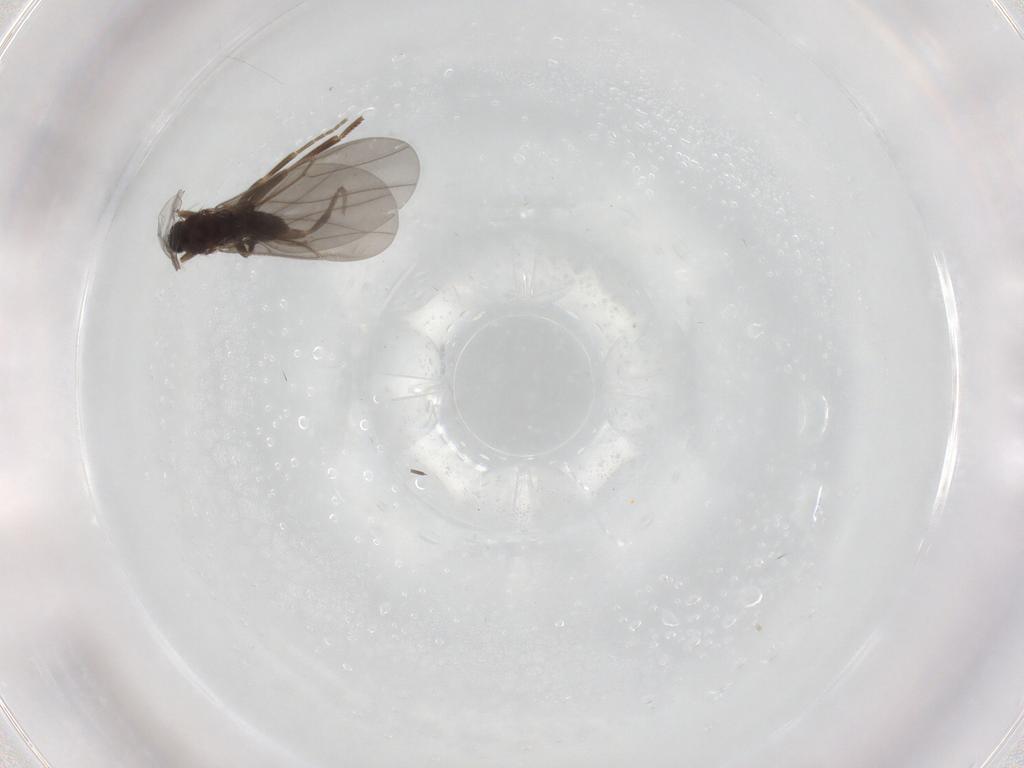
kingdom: Animalia
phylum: Arthropoda
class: Insecta
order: Diptera
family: Chironomidae
